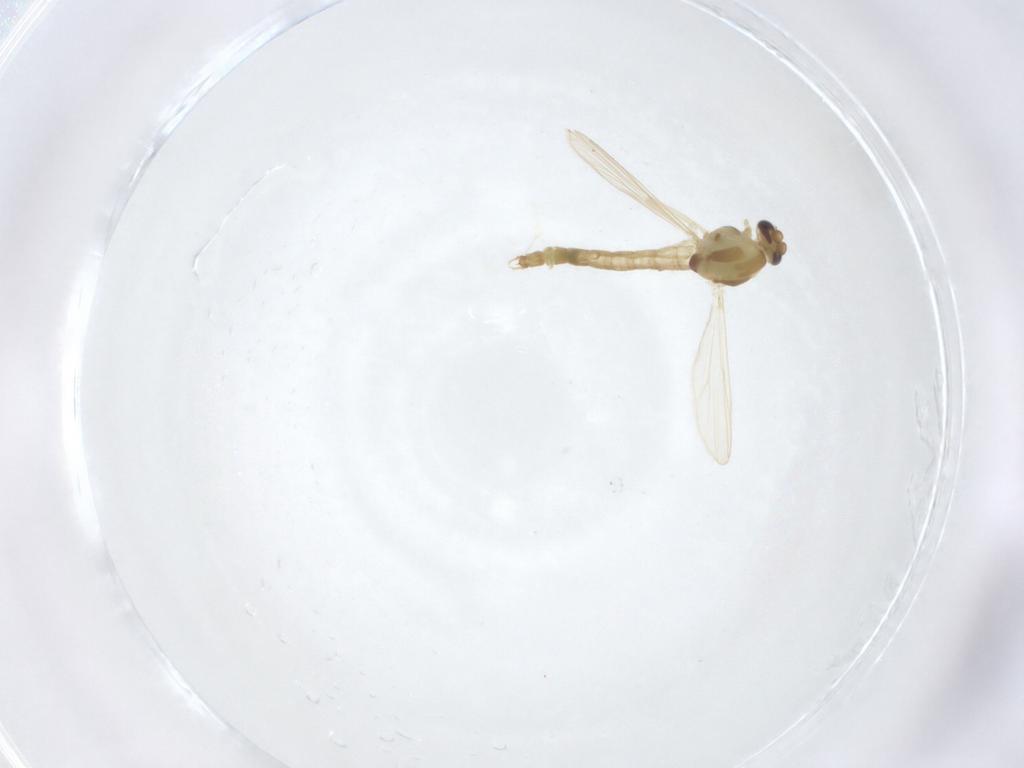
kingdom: Animalia
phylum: Arthropoda
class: Insecta
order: Diptera
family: Chironomidae
